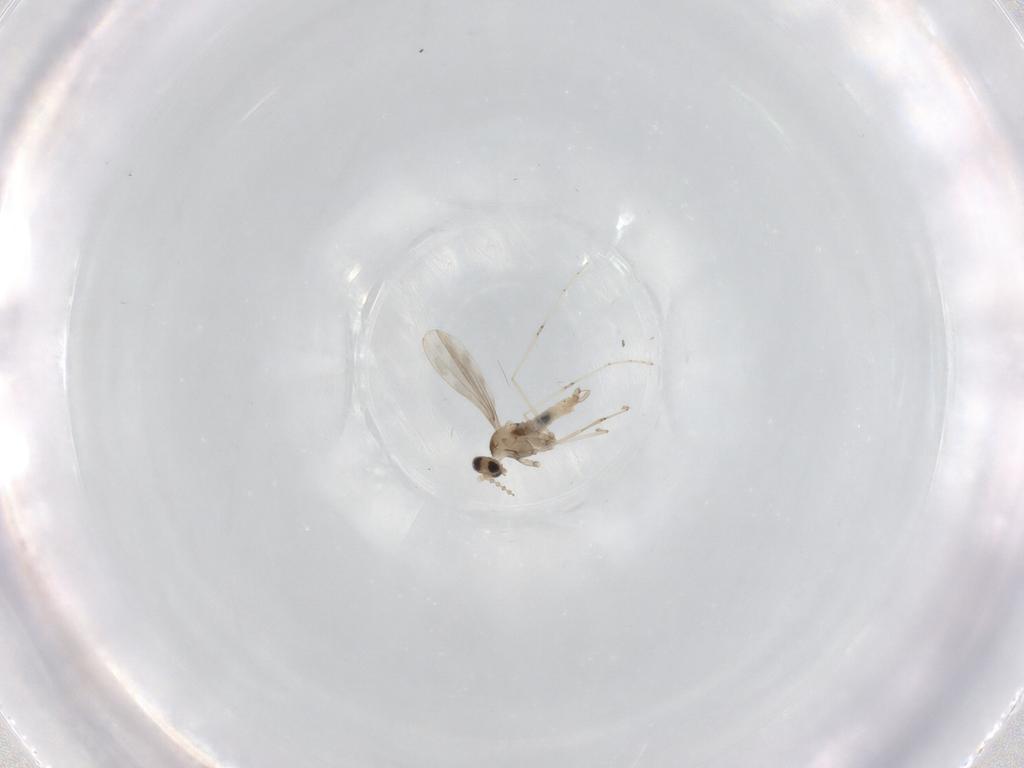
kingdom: Animalia
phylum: Arthropoda
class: Insecta
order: Diptera
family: Cecidomyiidae
